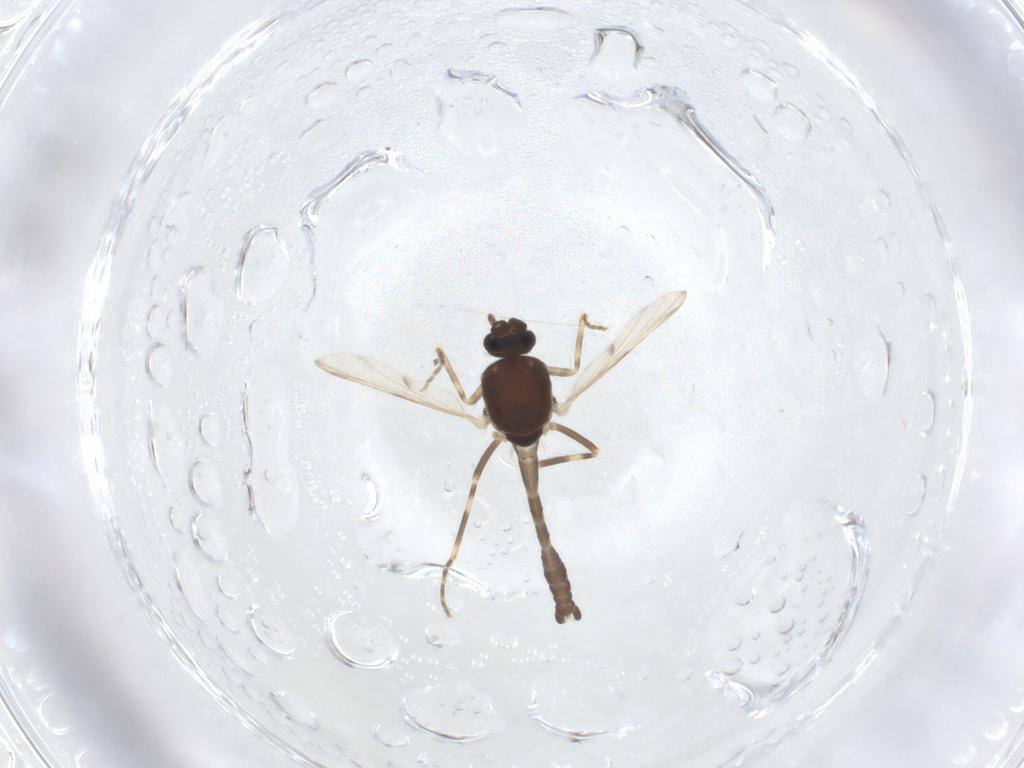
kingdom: Animalia
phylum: Arthropoda
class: Insecta
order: Diptera
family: Ceratopogonidae
